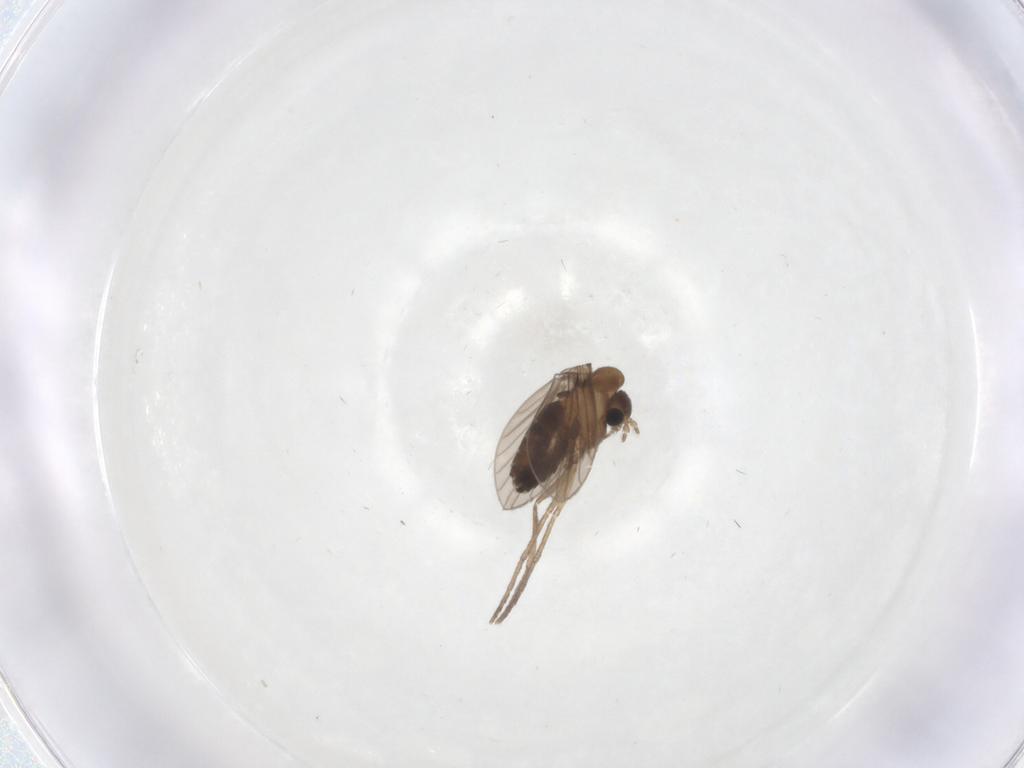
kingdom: Animalia
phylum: Arthropoda
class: Insecta
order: Diptera
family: Psychodidae
